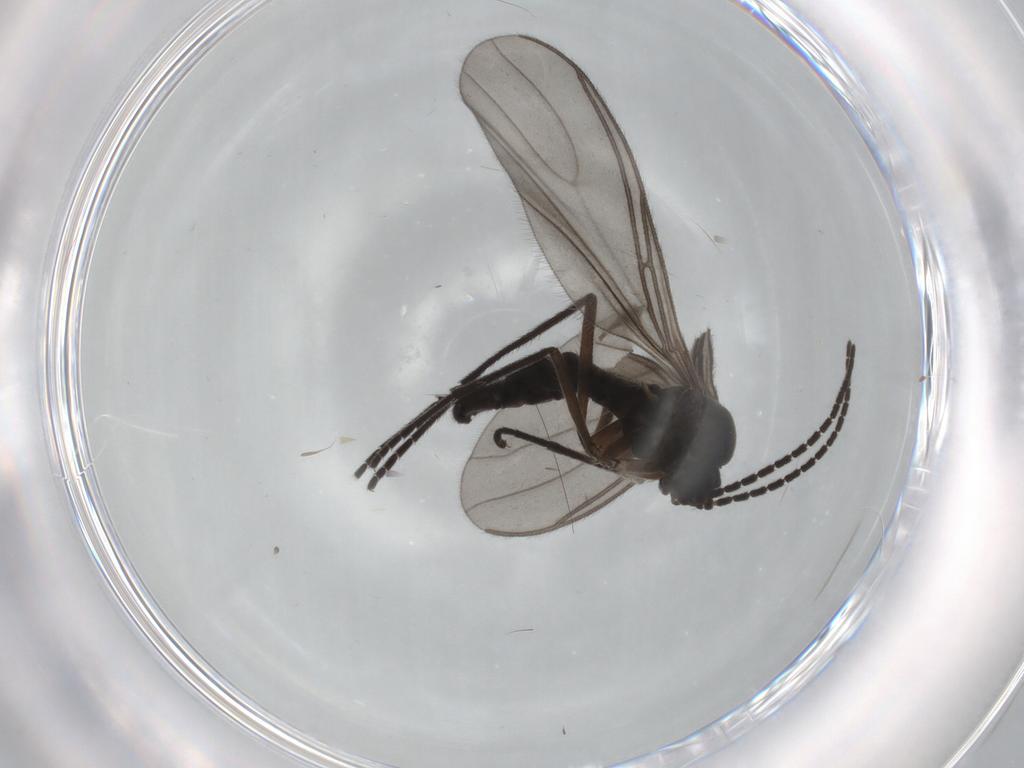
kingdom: Animalia
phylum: Arthropoda
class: Insecta
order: Diptera
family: Sciaridae
